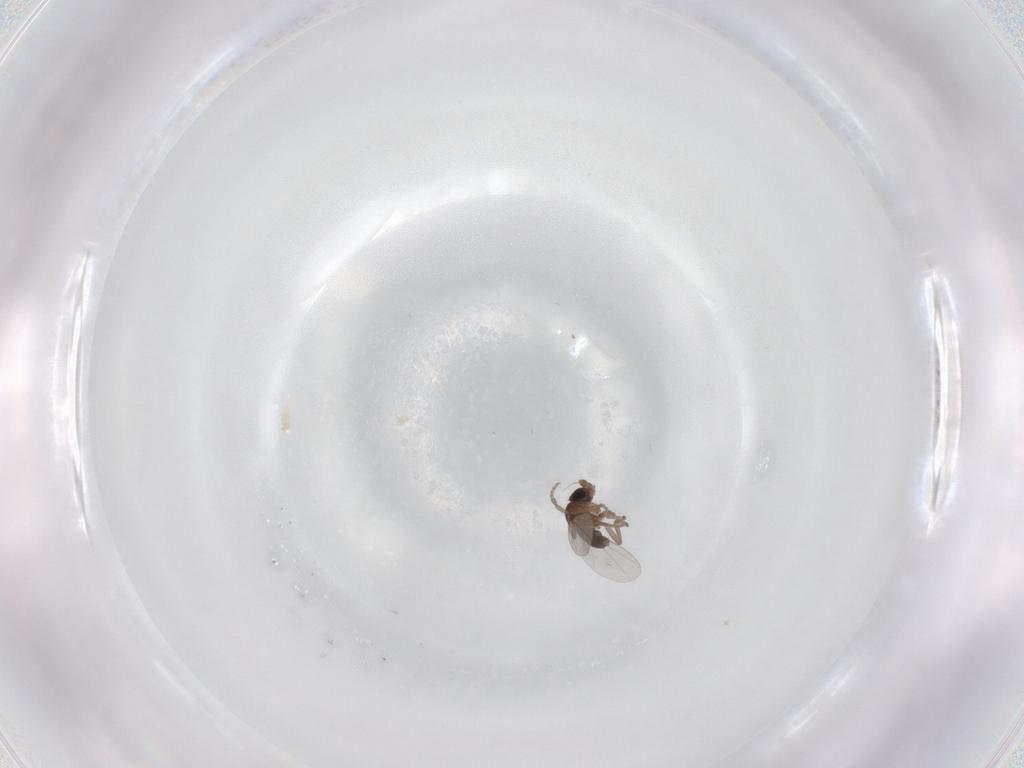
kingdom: Animalia
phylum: Arthropoda
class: Insecta
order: Diptera
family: Phoridae
